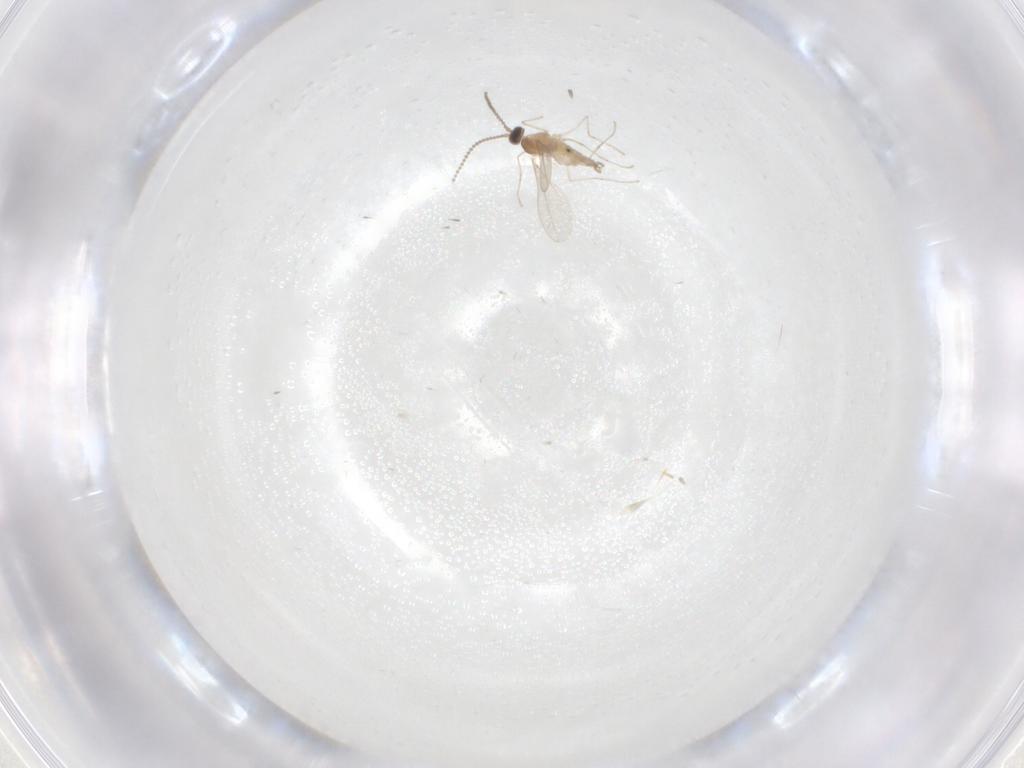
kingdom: Animalia
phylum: Arthropoda
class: Insecta
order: Diptera
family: Cecidomyiidae
